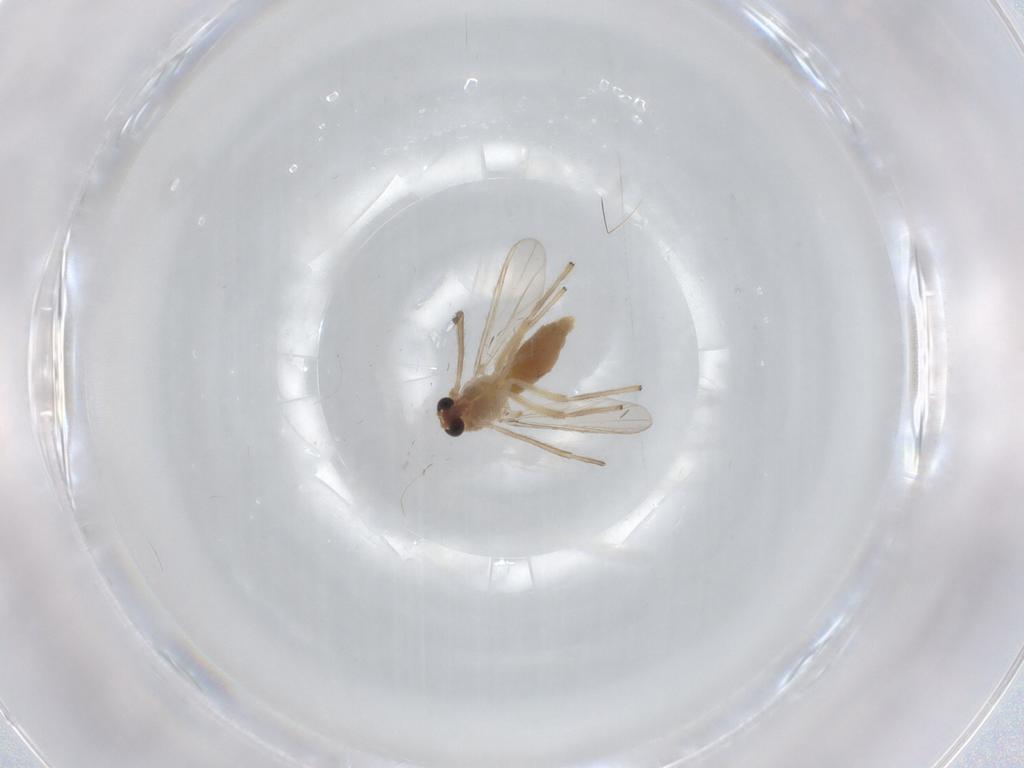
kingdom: Animalia
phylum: Arthropoda
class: Insecta
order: Diptera
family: Chironomidae
